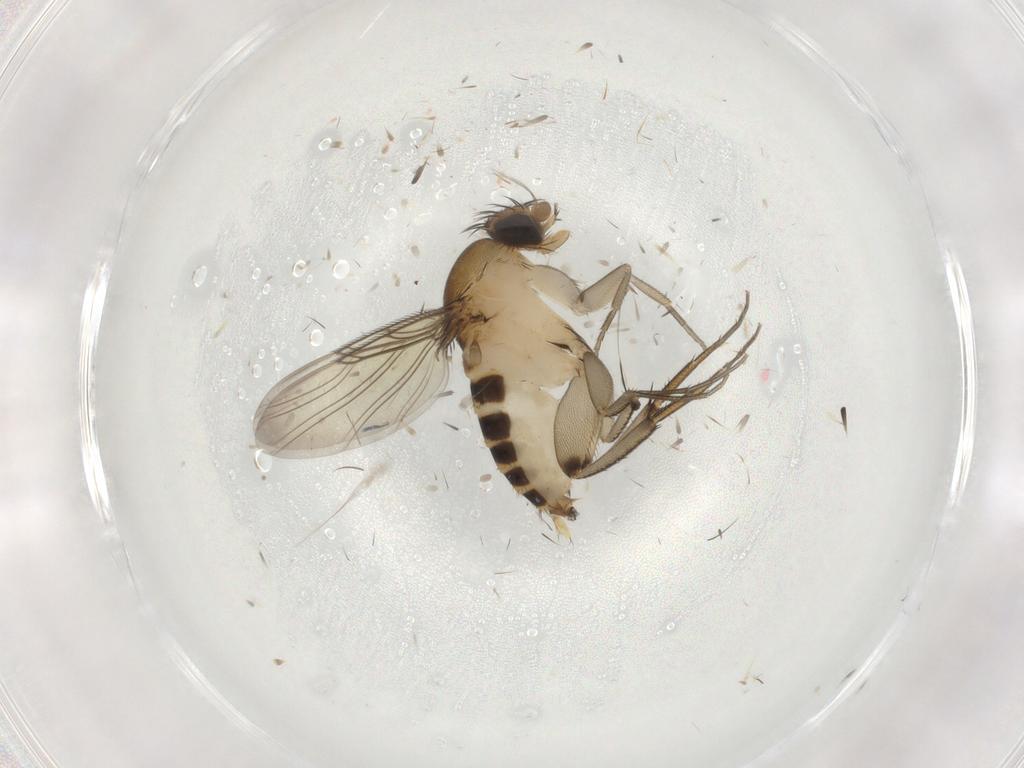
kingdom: Animalia
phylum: Arthropoda
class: Insecta
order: Diptera
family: Phoridae
